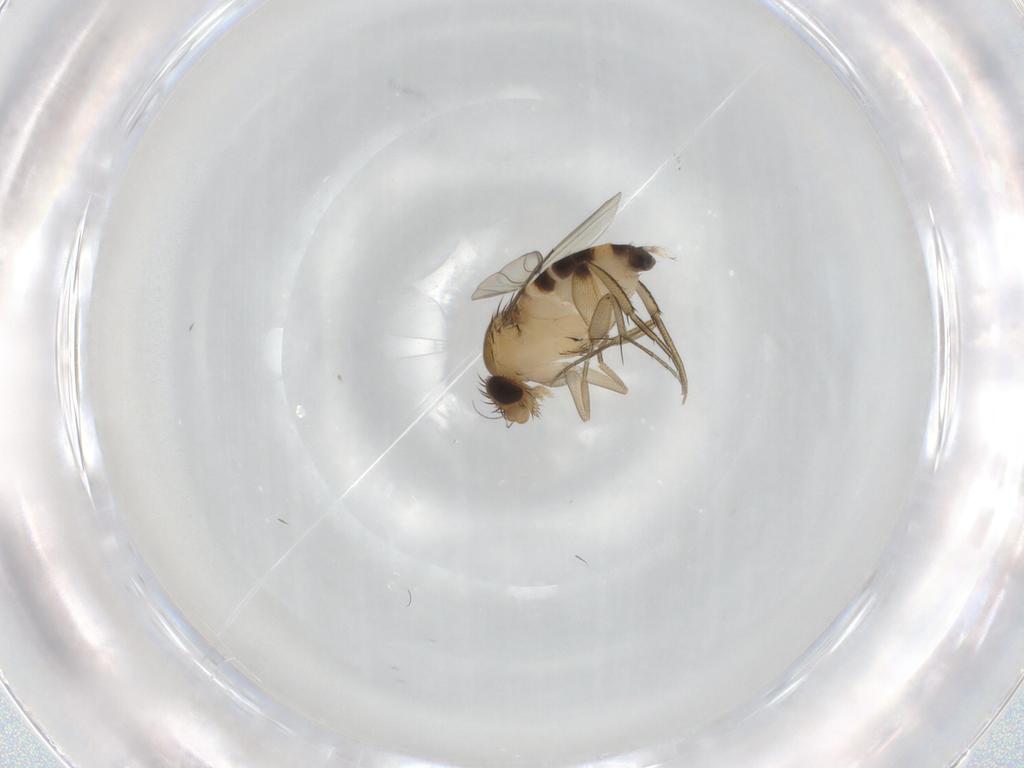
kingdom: Animalia
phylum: Arthropoda
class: Insecta
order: Diptera
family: Phoridae
